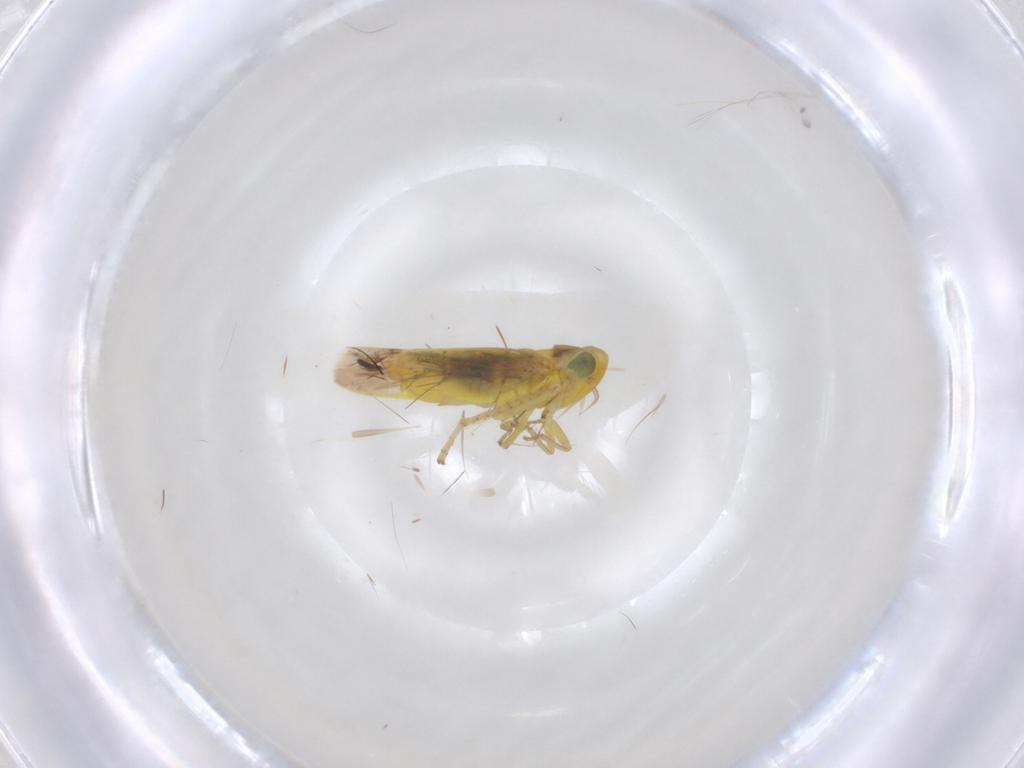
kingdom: Animalia
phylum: Arthropoda
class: Insecta
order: Hemiptera
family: Cicadellidae
